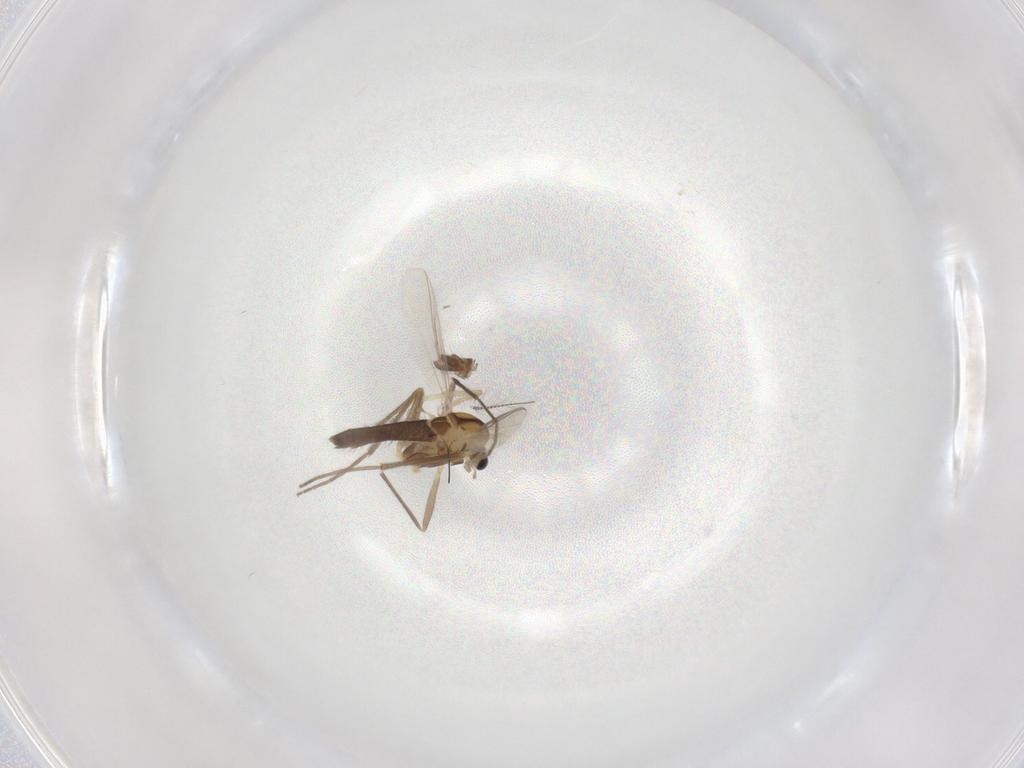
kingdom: Animalia
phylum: Arthropoda
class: Insecta
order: Diptera
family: Chironomidae
